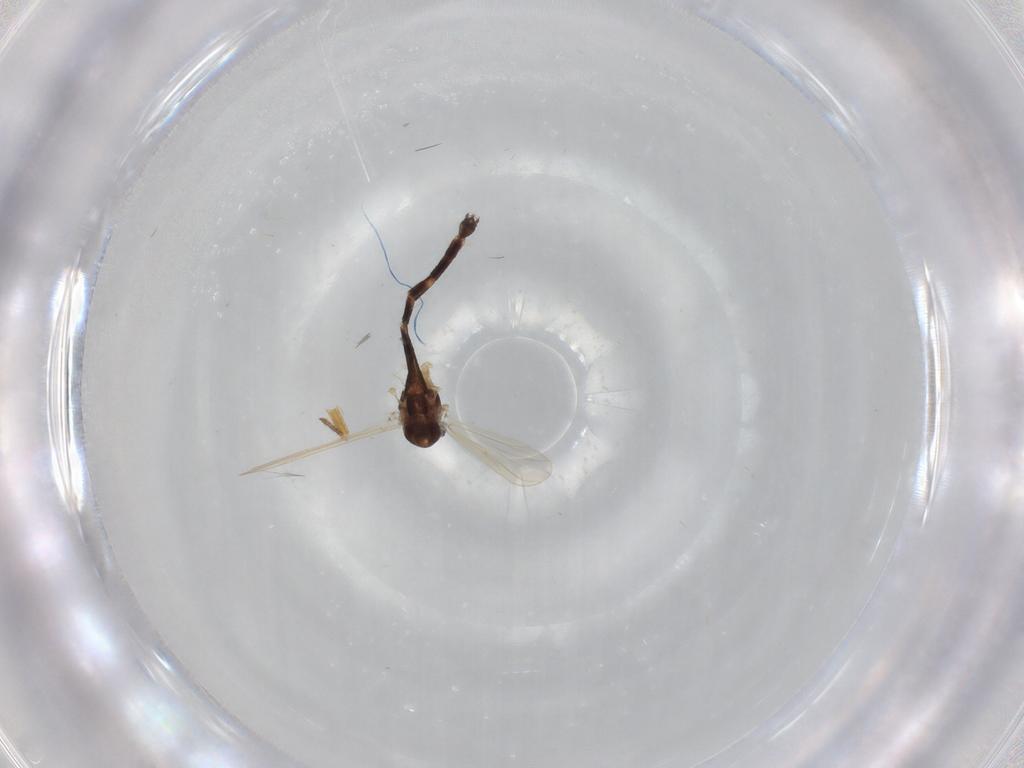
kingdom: Animalia
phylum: Arthropoda
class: Insecta
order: Diptera
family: Chironomidae
